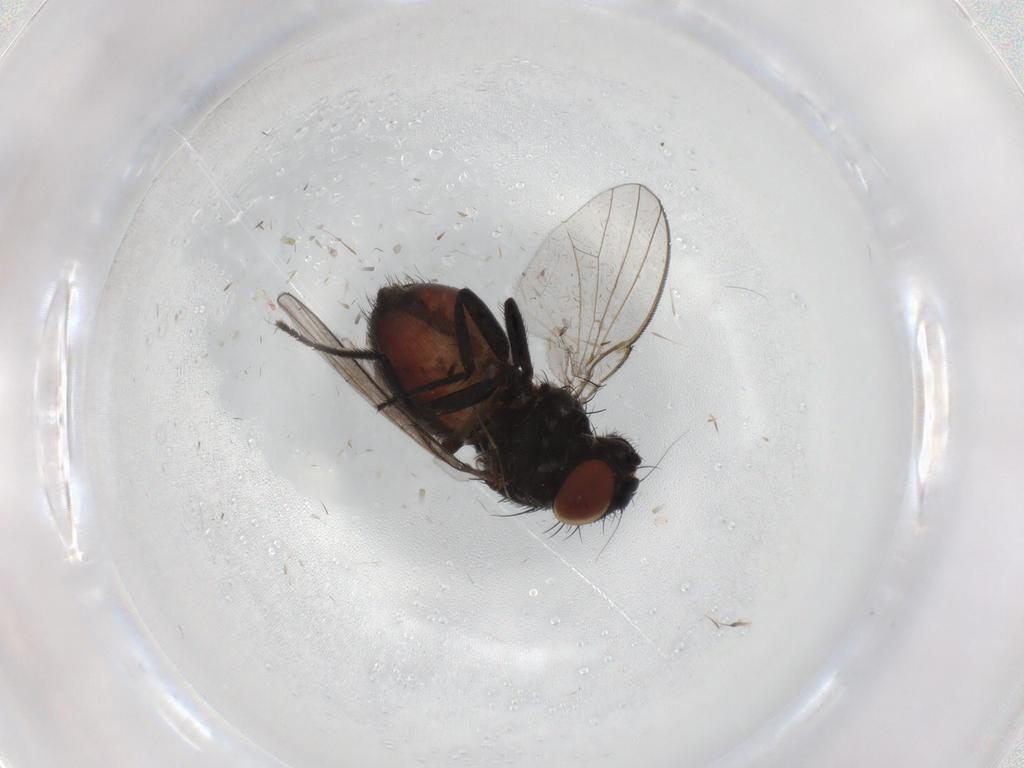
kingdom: Animalia
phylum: Arthropoda
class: Insecta
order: Diptera
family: Milichiidae
